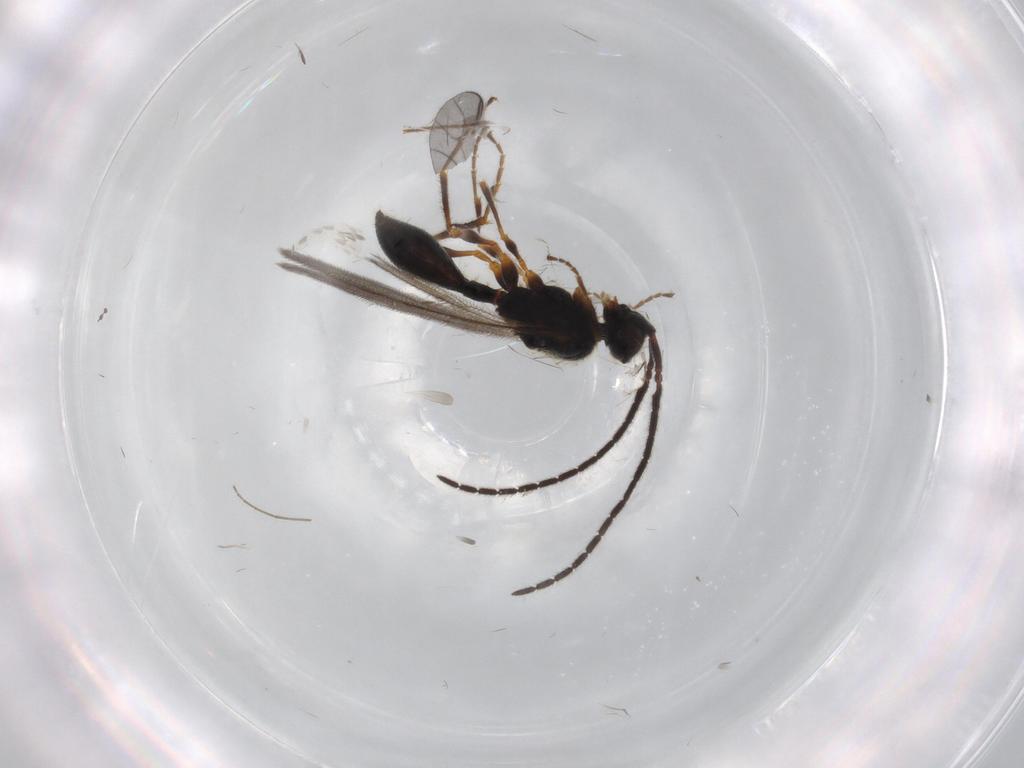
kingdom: Animalia
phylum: Arthropoda
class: Insecta
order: Hymenoptera
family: Diapriidae
